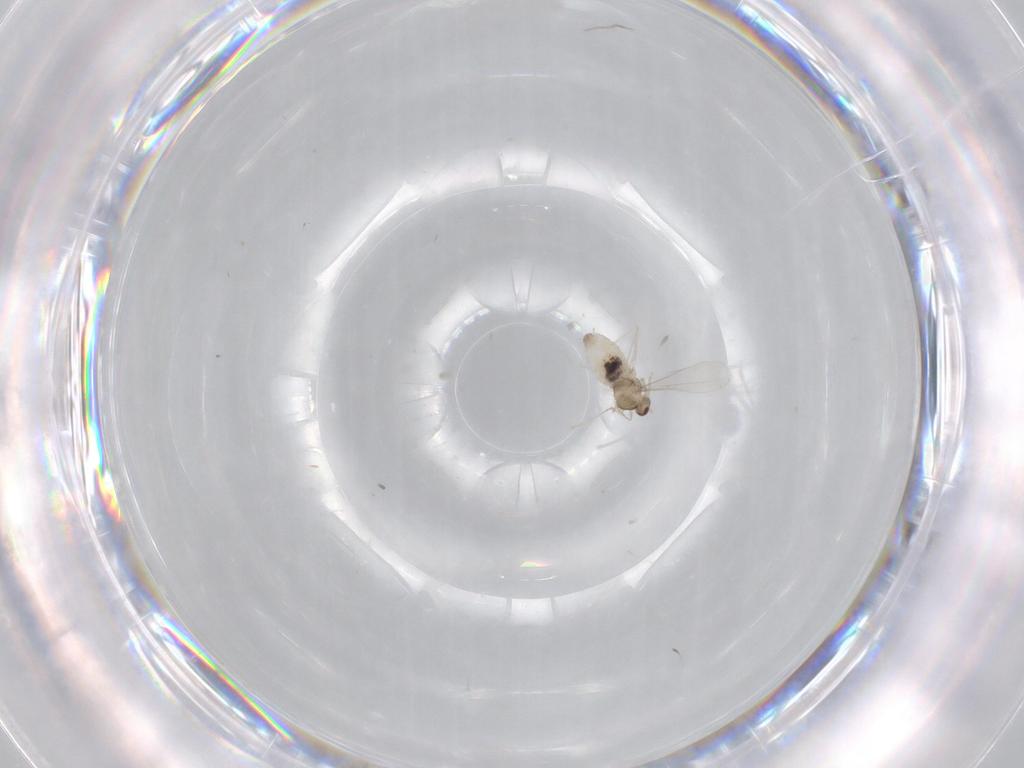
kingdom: Animalia
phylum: Arthropoda
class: Insecta
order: Diptera
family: Cecidomyiidae
